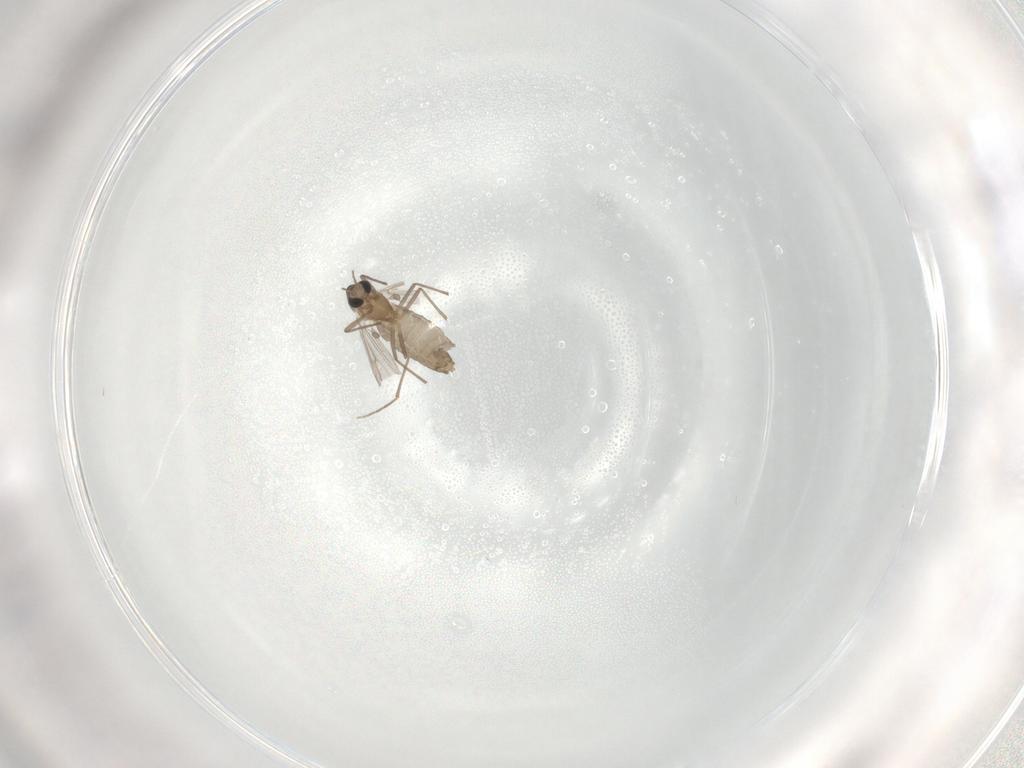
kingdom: Animalia
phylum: Arthropoda
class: Insecta
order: Diptera
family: Chironomidae
